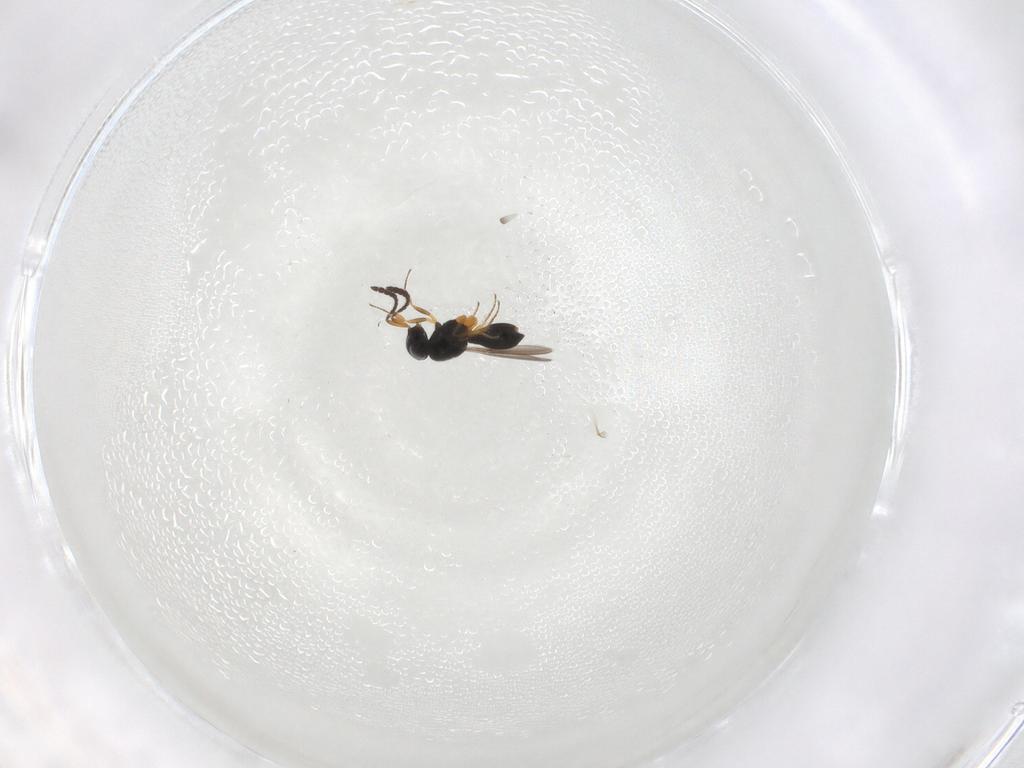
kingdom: Animalia
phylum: Arthropoda
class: Insecta
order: Hymenoptera
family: Scelionidae
